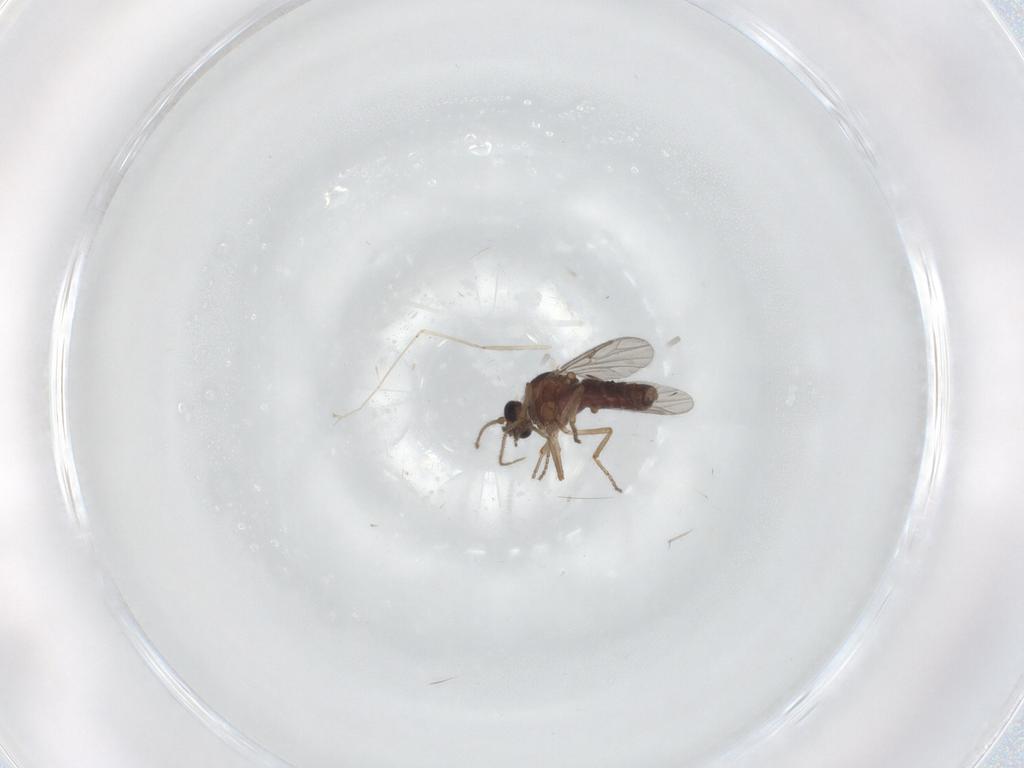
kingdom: Animalia
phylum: Arthropoda
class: Insecta
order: Diptera
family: Ceratopogonidae
